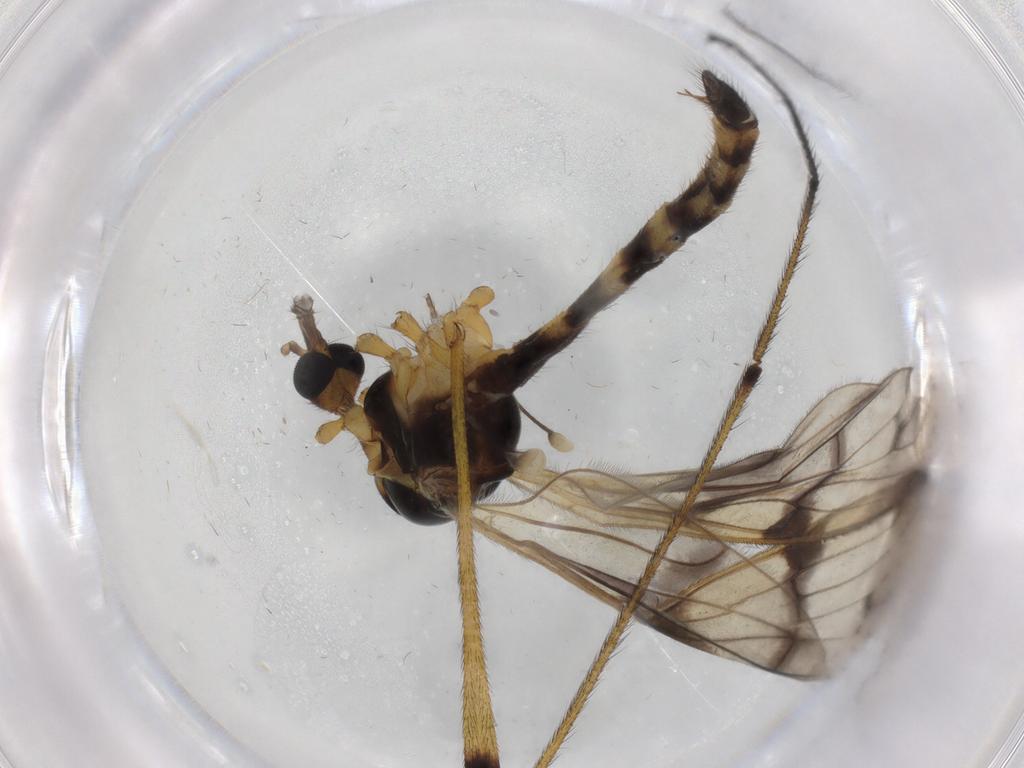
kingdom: Animalia
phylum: Arthropoda
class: Insecta
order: Diptera
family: Limoniidae
